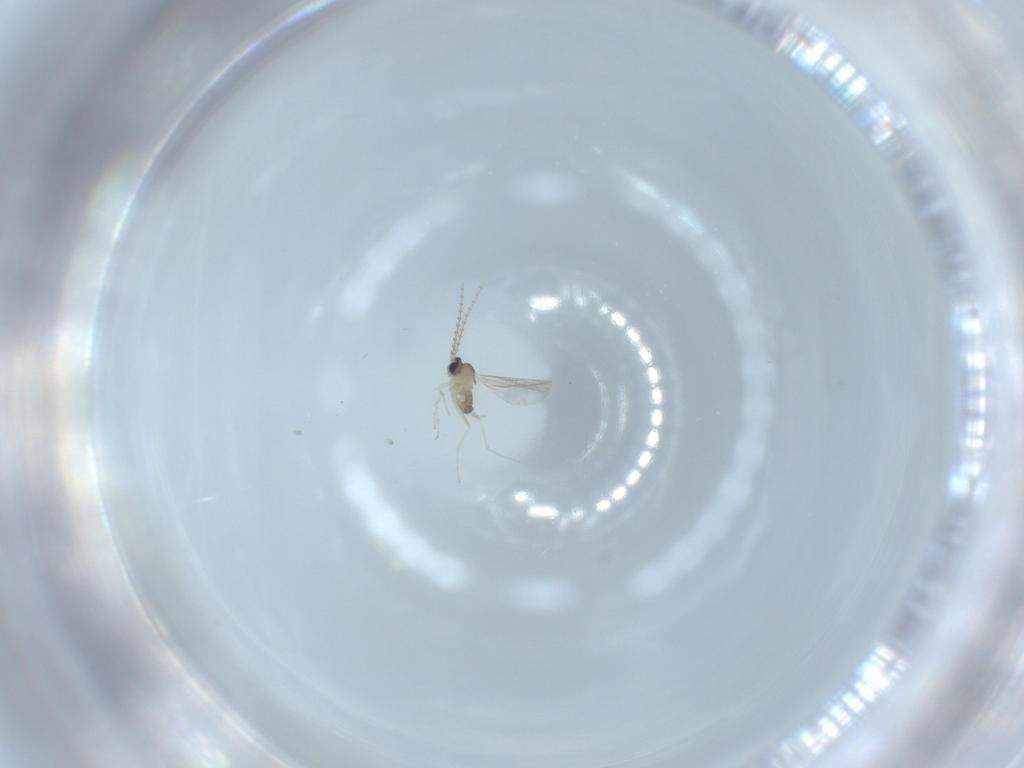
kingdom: Animalia
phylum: Arthropoda
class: Insecta
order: Diptera
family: Cecidomyiidae
